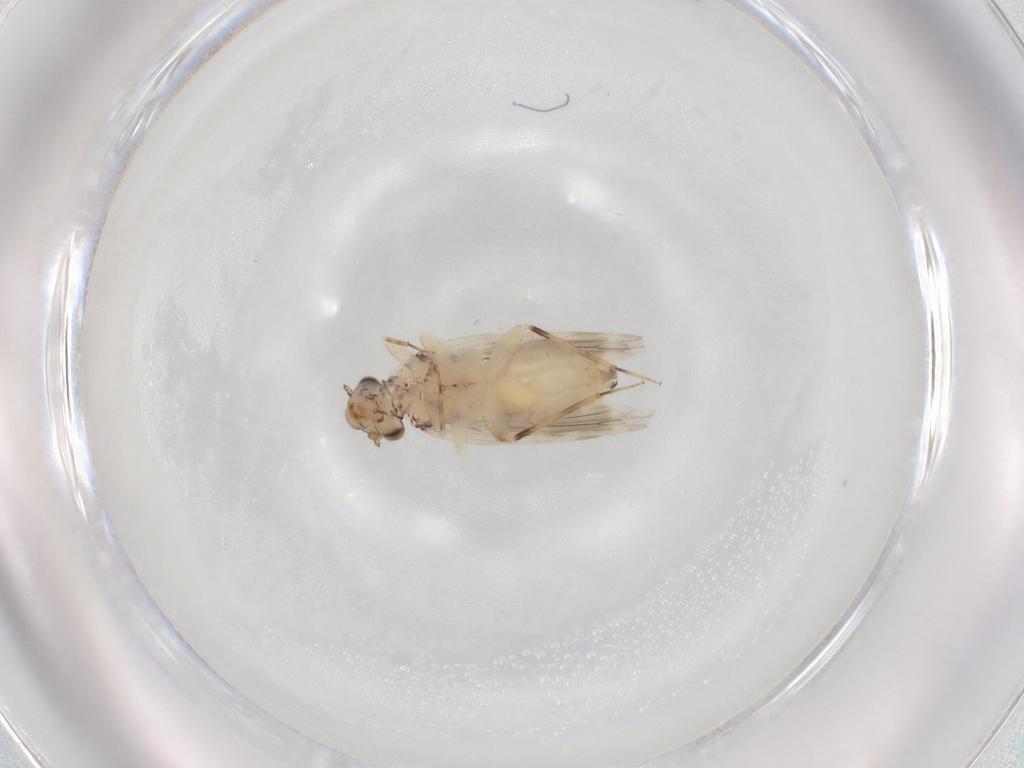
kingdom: Animalia
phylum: Arthropoda
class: Insecta
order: Psocodea
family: Lepidopsocidae
